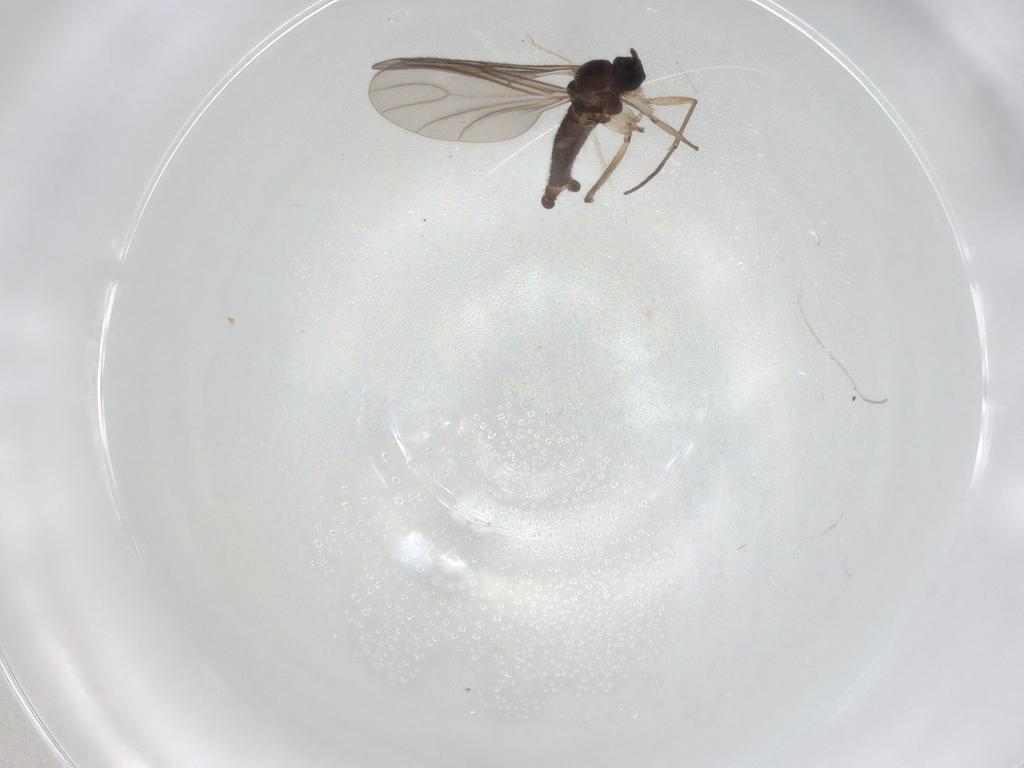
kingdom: Animalia
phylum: Arthropoda
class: Insecta
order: Diptera
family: Sciaridae
